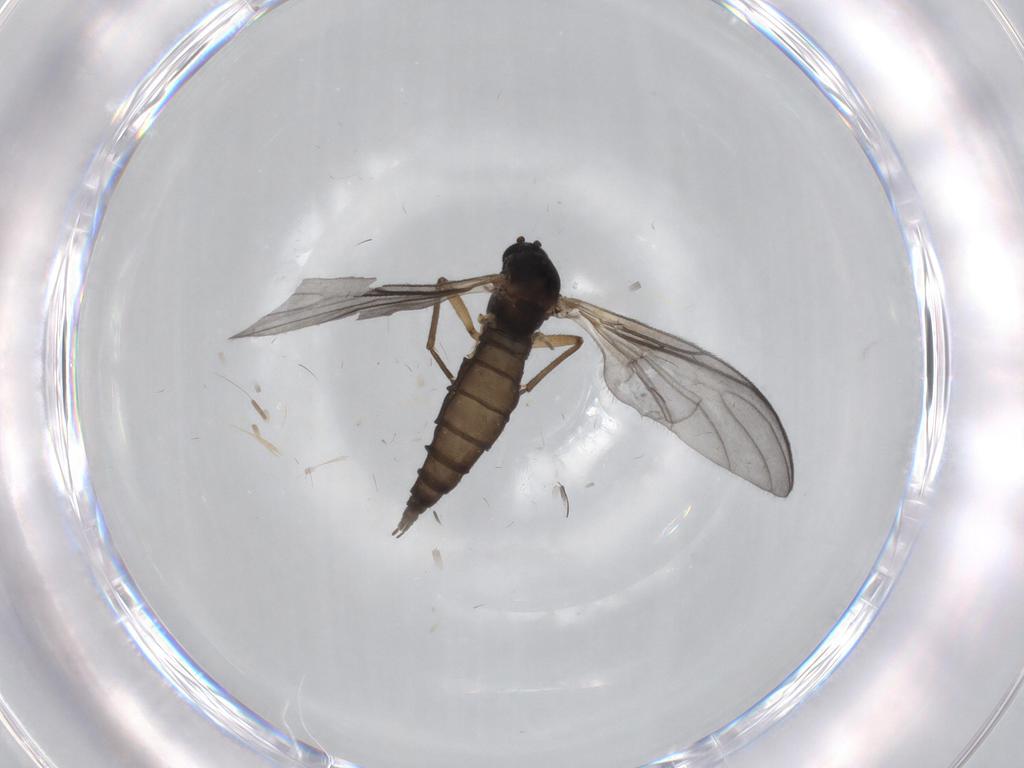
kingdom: Animalia
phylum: Arthropoda
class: Insecta
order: Diptera
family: Sciaridae
